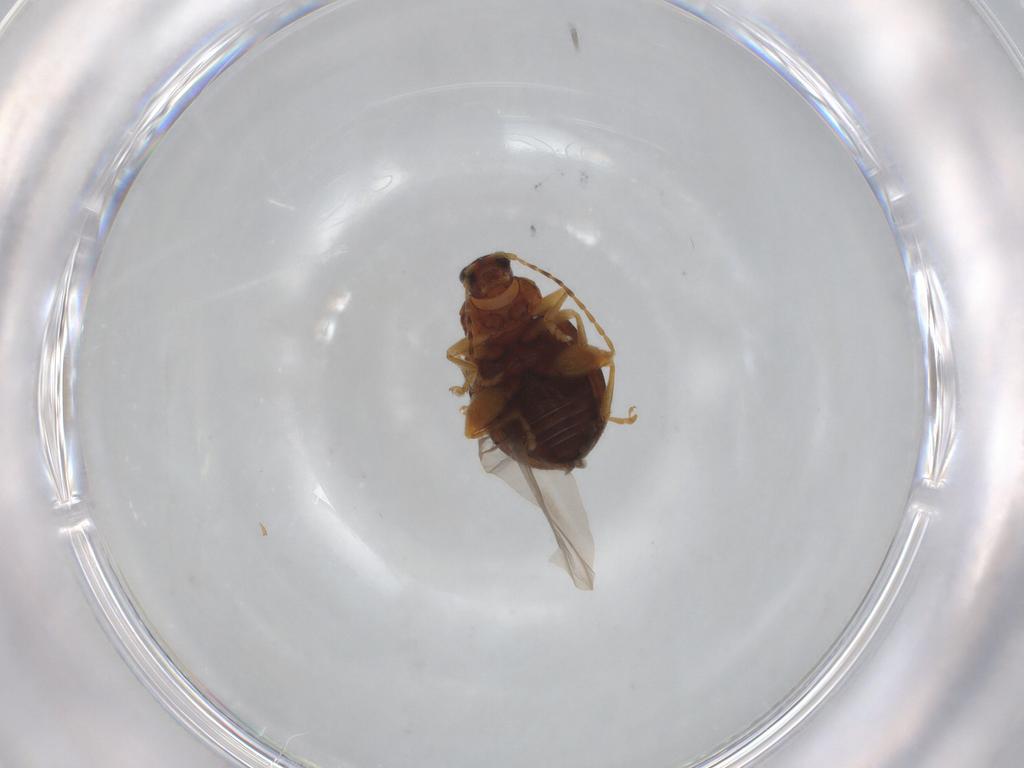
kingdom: Animalia
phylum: Arthropoda
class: Insecta
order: Coleoptera
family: Chrysomelidae
